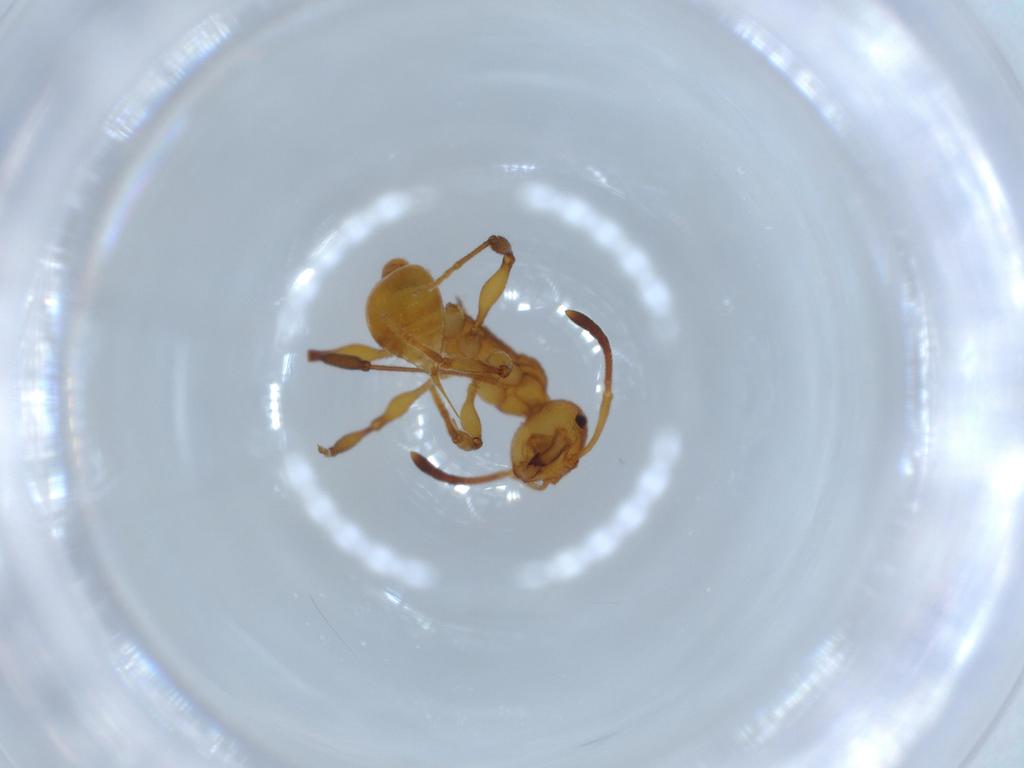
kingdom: Animalia
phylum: Arthropoda
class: Insecta
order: Hymenoptera
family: Formicidae
